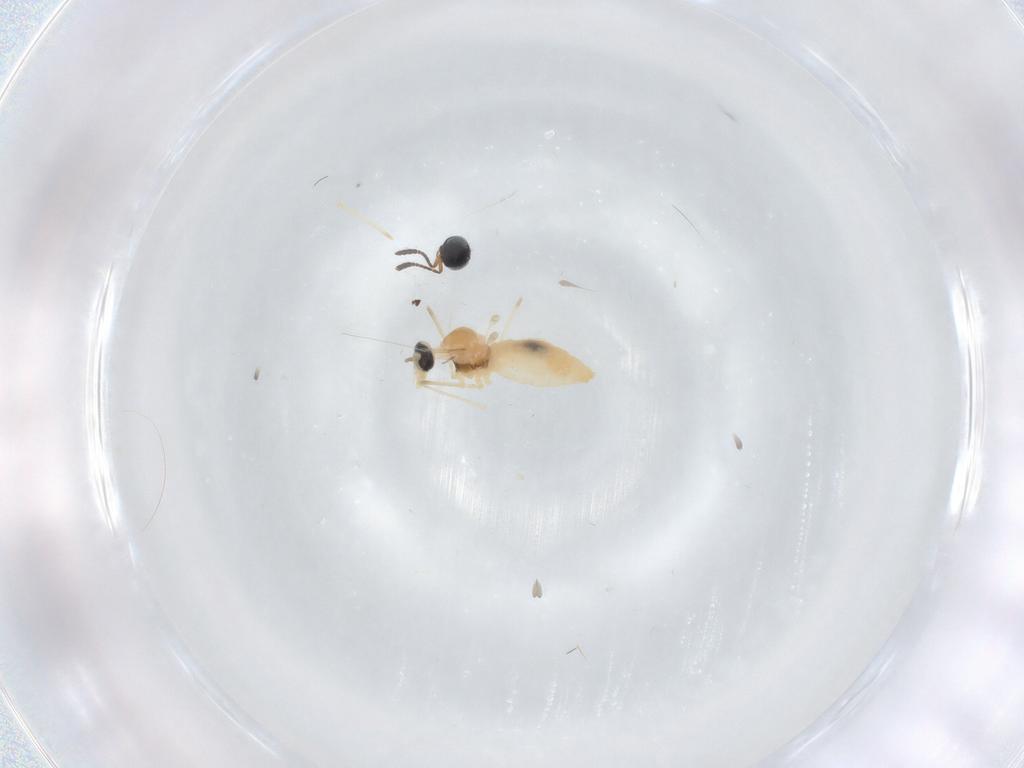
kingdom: Animalia
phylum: Arthropoda
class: Insecta
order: Diptera
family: Cecidomyiidae
